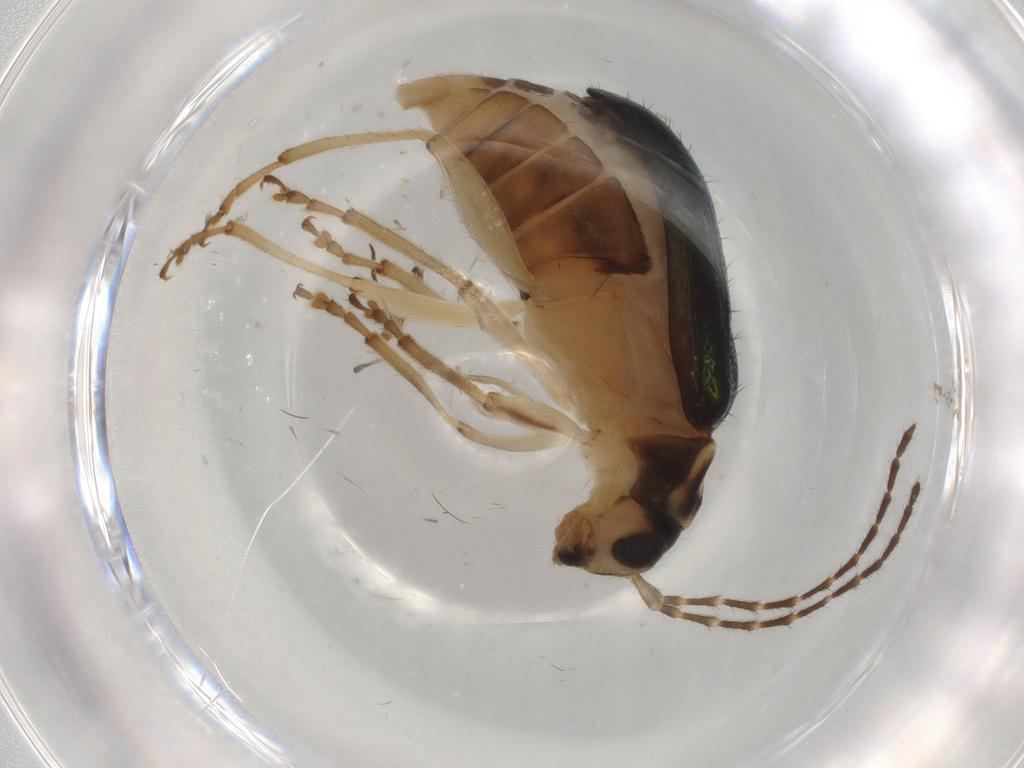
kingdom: Animalia
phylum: Arthropoda
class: Insecta
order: Coleoptera
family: Chrysomelidae
